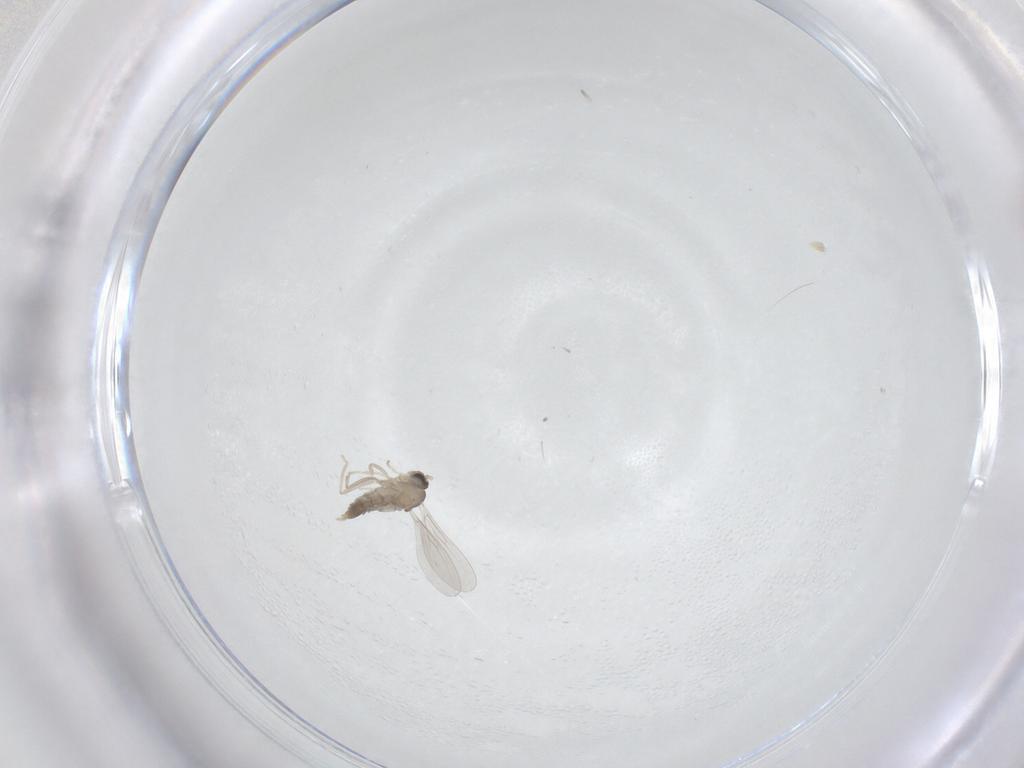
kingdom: Animalia
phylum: Arthropoda
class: Insecta
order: Diptera
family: Cecidomyiidae
